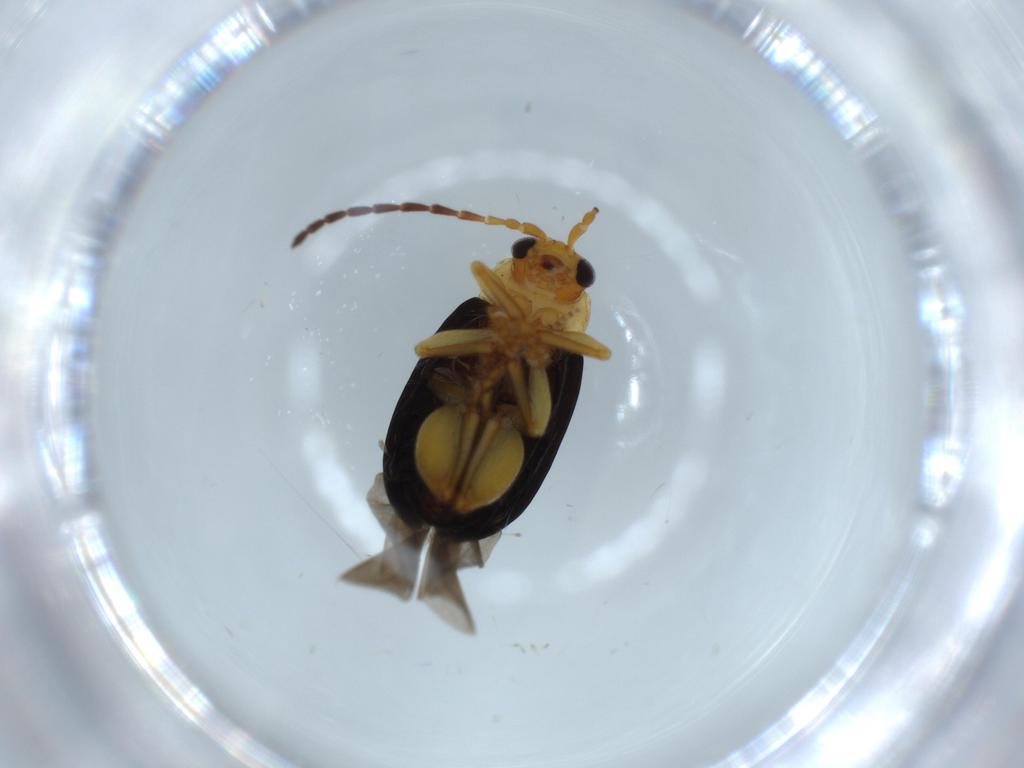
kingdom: Animalia
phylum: Arthropoda
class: Insecta
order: Coleoptera
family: Chrysomelidae
